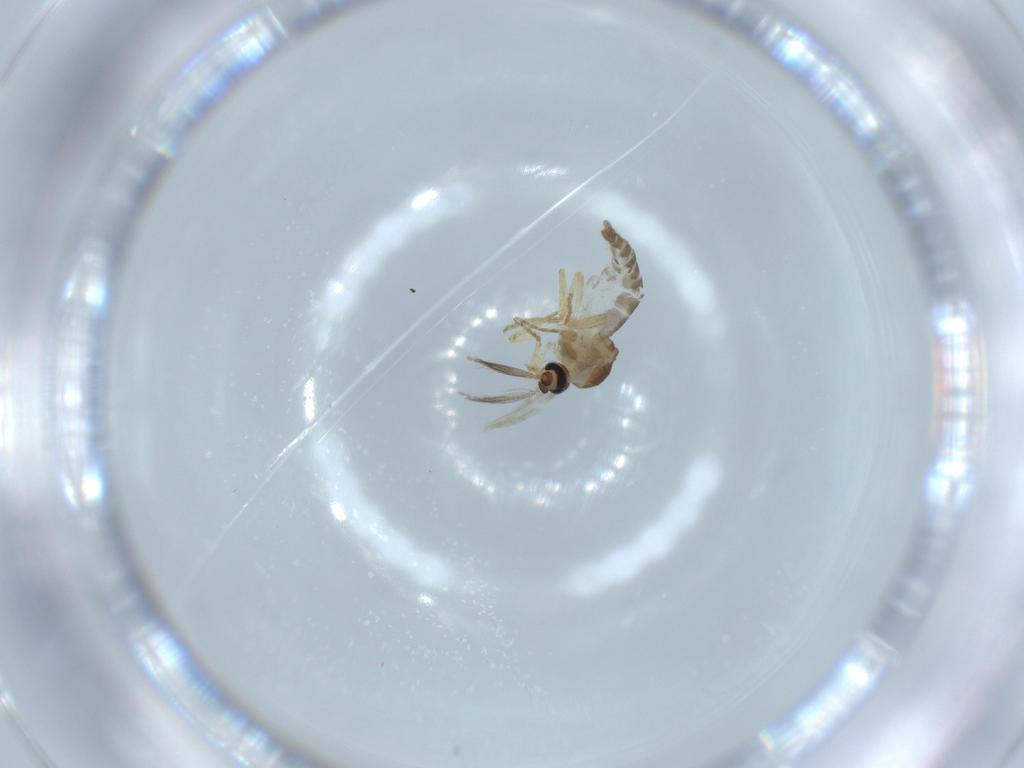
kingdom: Animalia
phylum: Arthropoda
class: Insecta
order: Diptera
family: Ceratopogonidae
